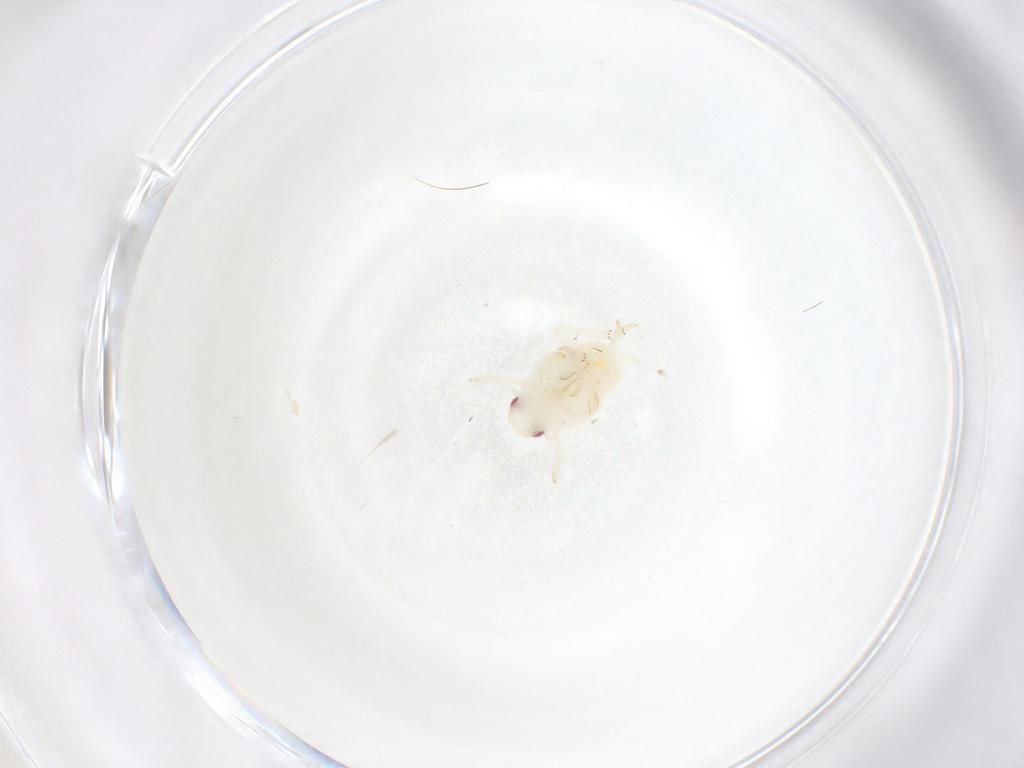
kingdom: Animalia
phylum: Arthropoda
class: Insecta
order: Hemiptera
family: Flatidae
